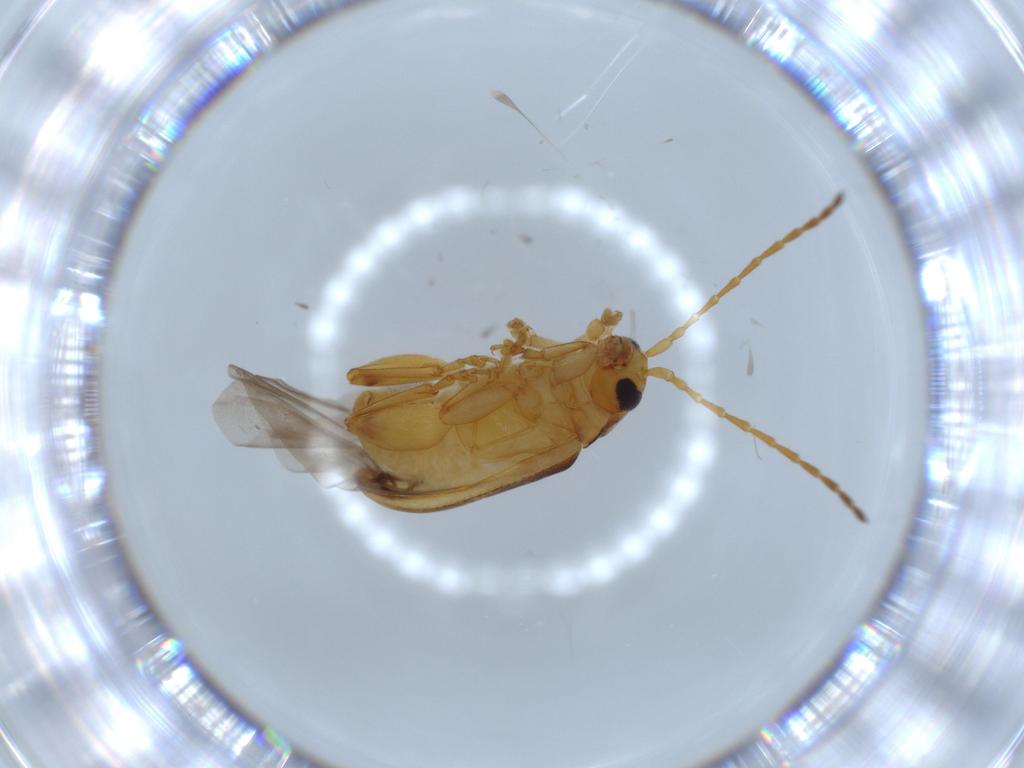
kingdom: Animalia
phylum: Arthropoda
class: Insecta
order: Coleoptera
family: Chrysomelidae
